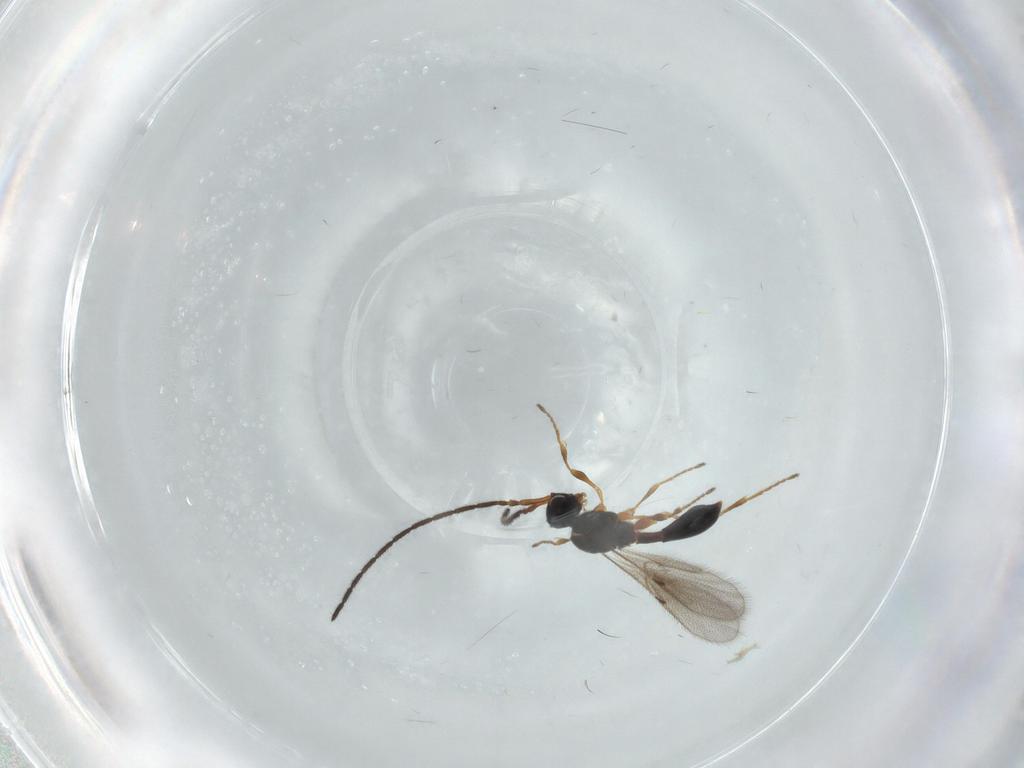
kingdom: Animalia
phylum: Arthropoda
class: Insecta
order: Hymenoptera
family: Diapriidae
